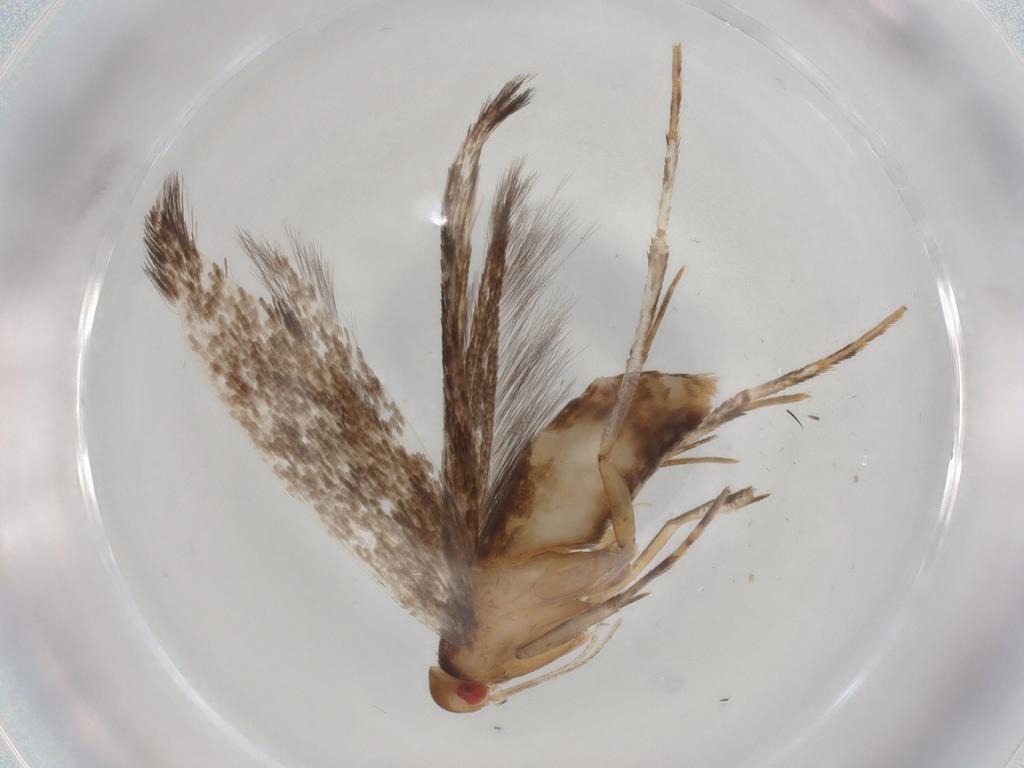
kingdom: Animalia
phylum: Arthropoda
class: Insecta
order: Lepidoptera
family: Cosmopterigidae
